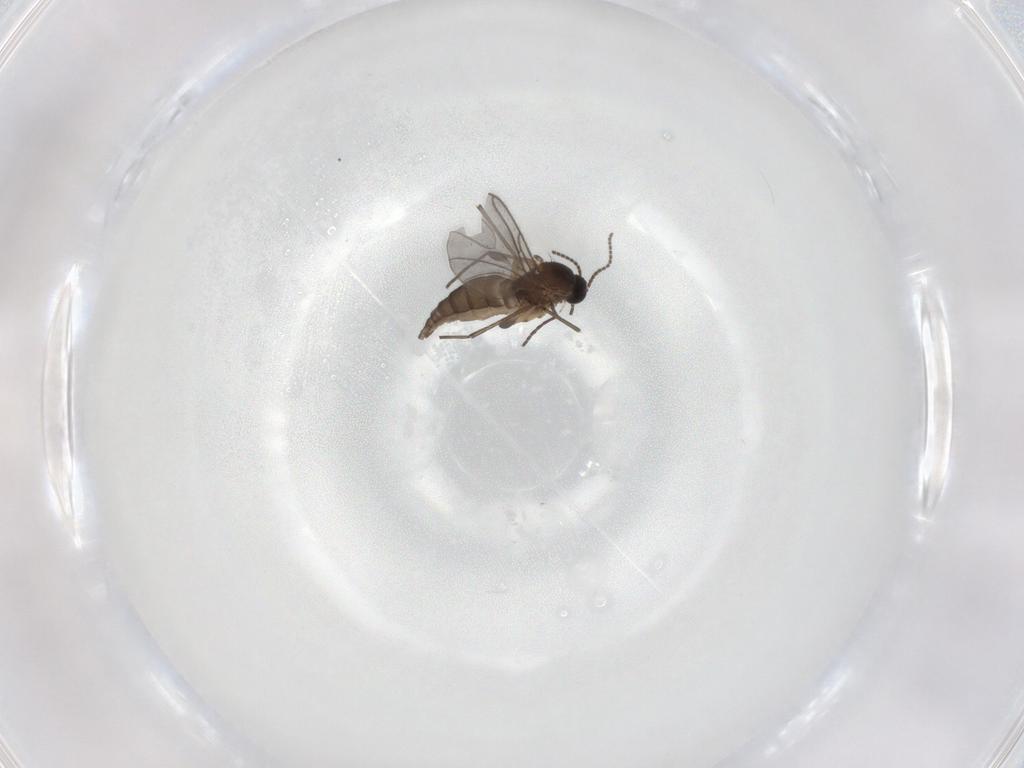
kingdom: Animalia
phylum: Arthropoda
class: Insecta
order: Diptera
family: Sciaridae
